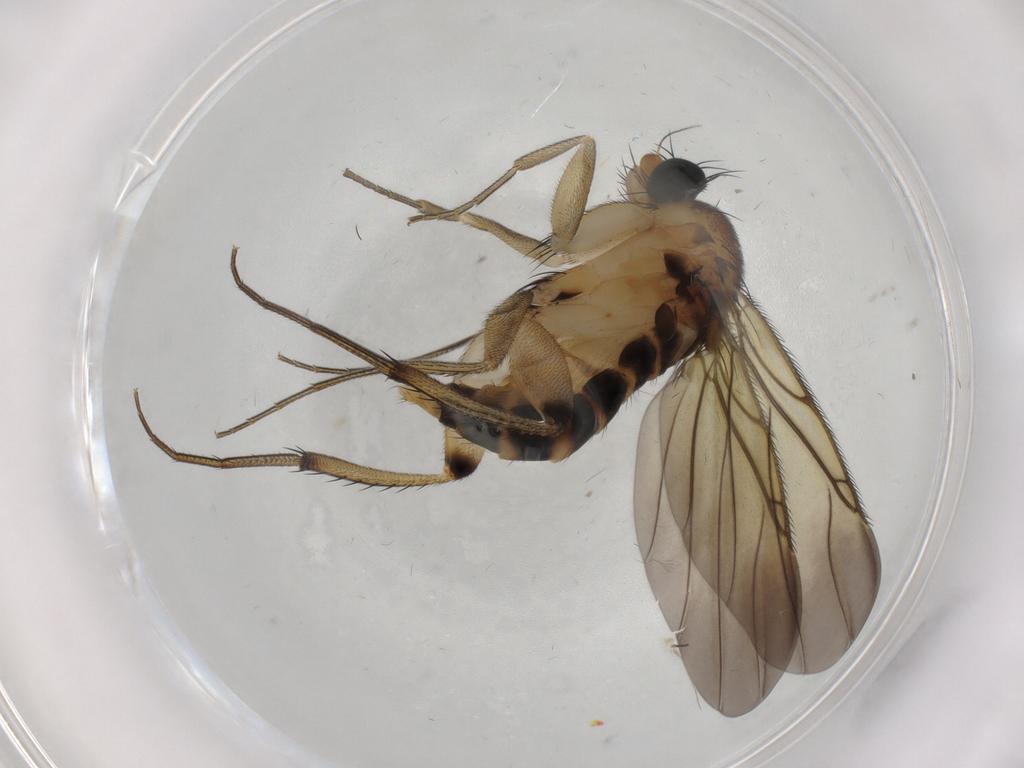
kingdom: Animalia
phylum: Arthropoda
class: Insecta
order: Diptera
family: Phoridae
